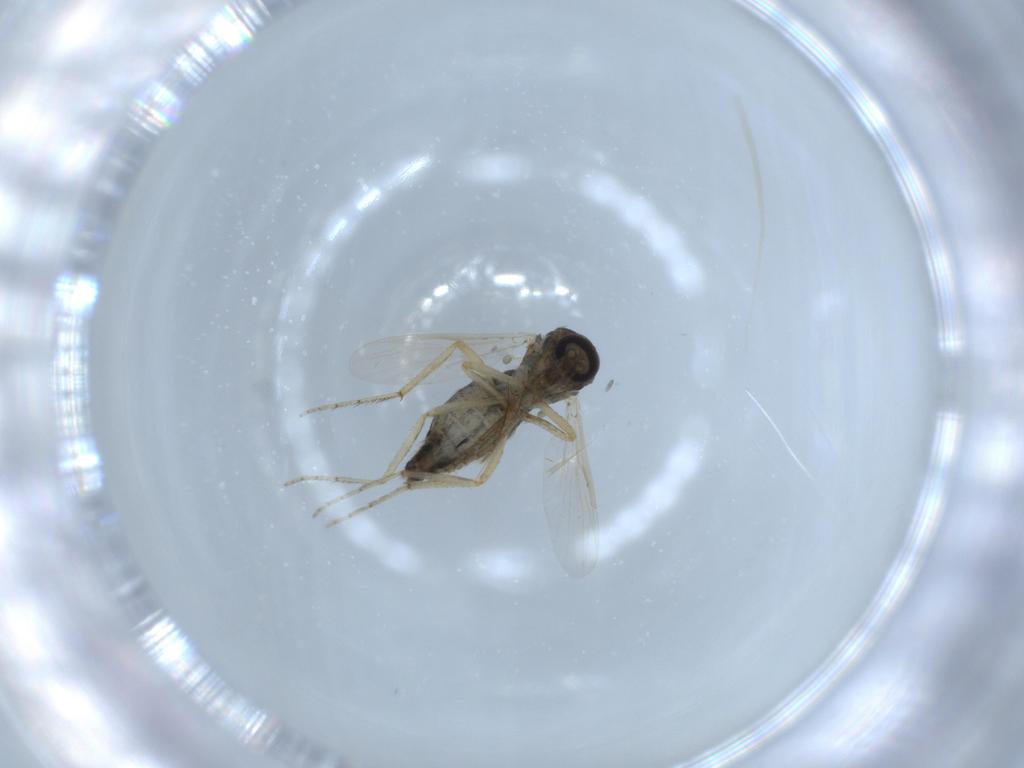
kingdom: Animalia
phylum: Arthropoda
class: Insecta
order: Diptera
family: Ceratopogonidae
